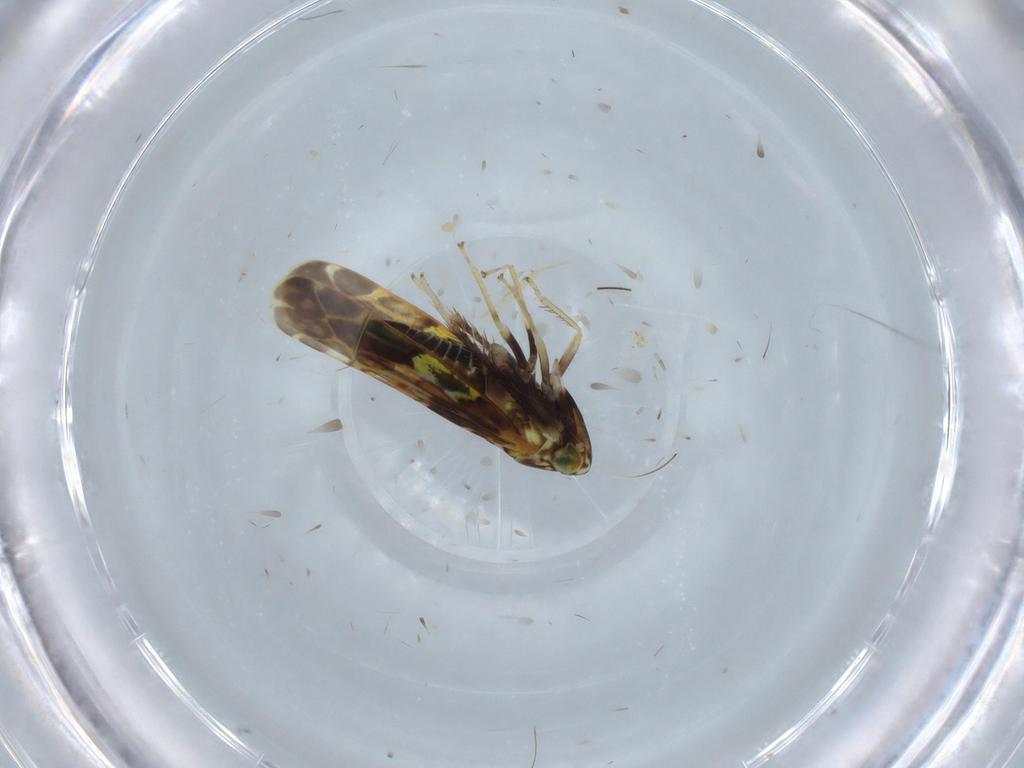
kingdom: Animalia
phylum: Arthropoda
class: Insecta
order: Hemiptera
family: Cicadellidae
